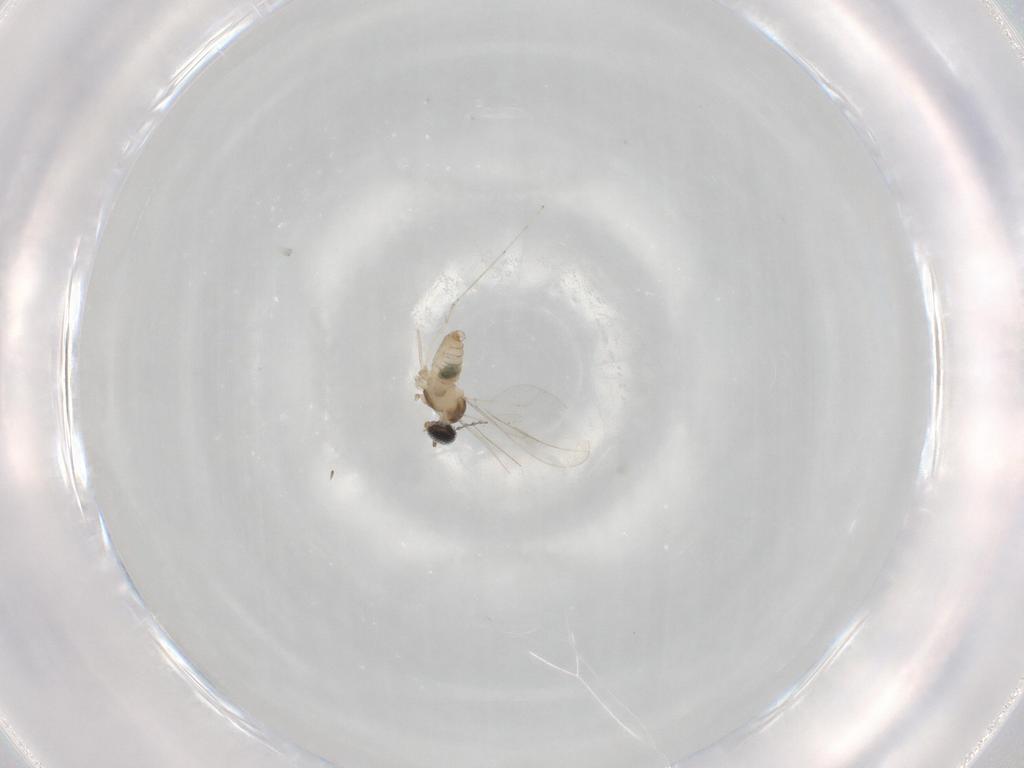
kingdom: Animalia
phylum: Arthropoda
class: Insecta
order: Diptera
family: Cecidomyiidae
